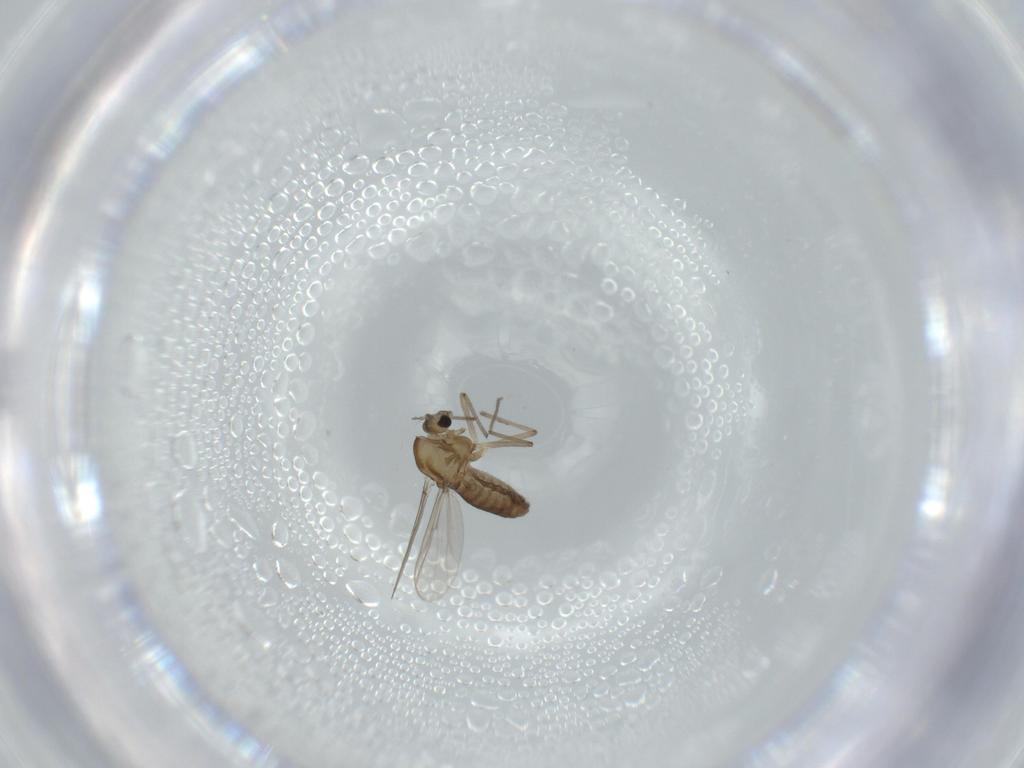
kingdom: Animalia
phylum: Arthropoda
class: Insecta
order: Diptera
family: Chironomidae
